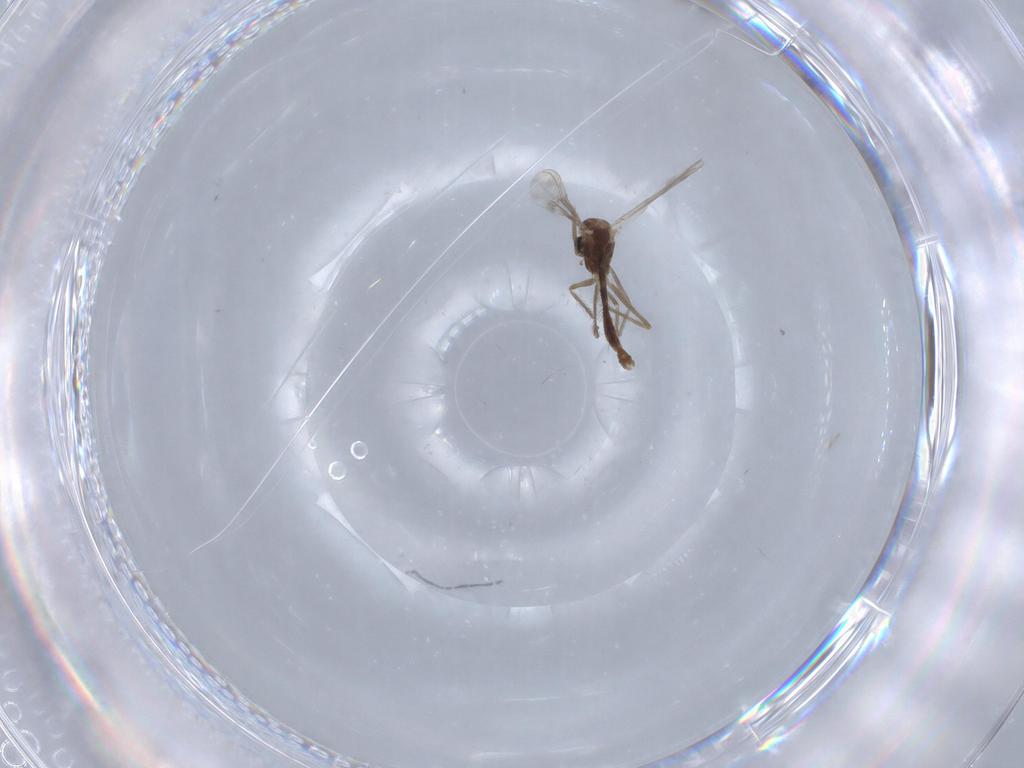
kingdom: Animalia
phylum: Arthropoda
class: Insecta
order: Diptera
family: Chironomidae
